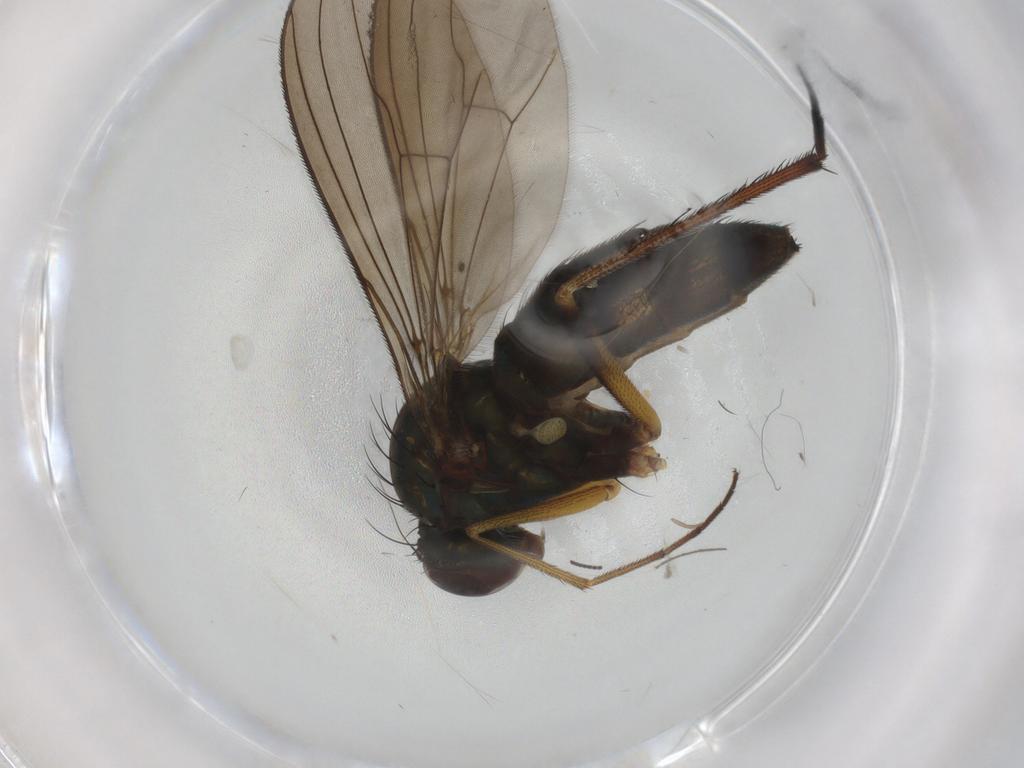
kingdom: Animalia
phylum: Arthropoda
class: Insecta
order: Diptera
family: Dolichopodidae
